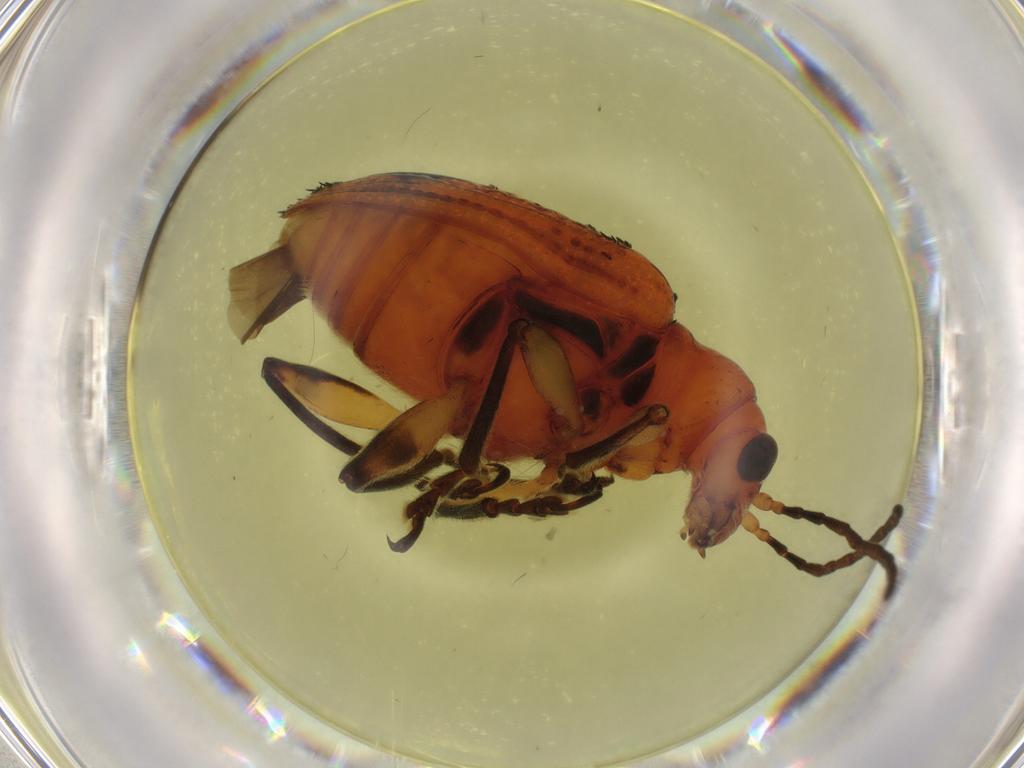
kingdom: Animalia
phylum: Arthropoda
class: Insecta
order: Coleoptera
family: Chrysomelidae
